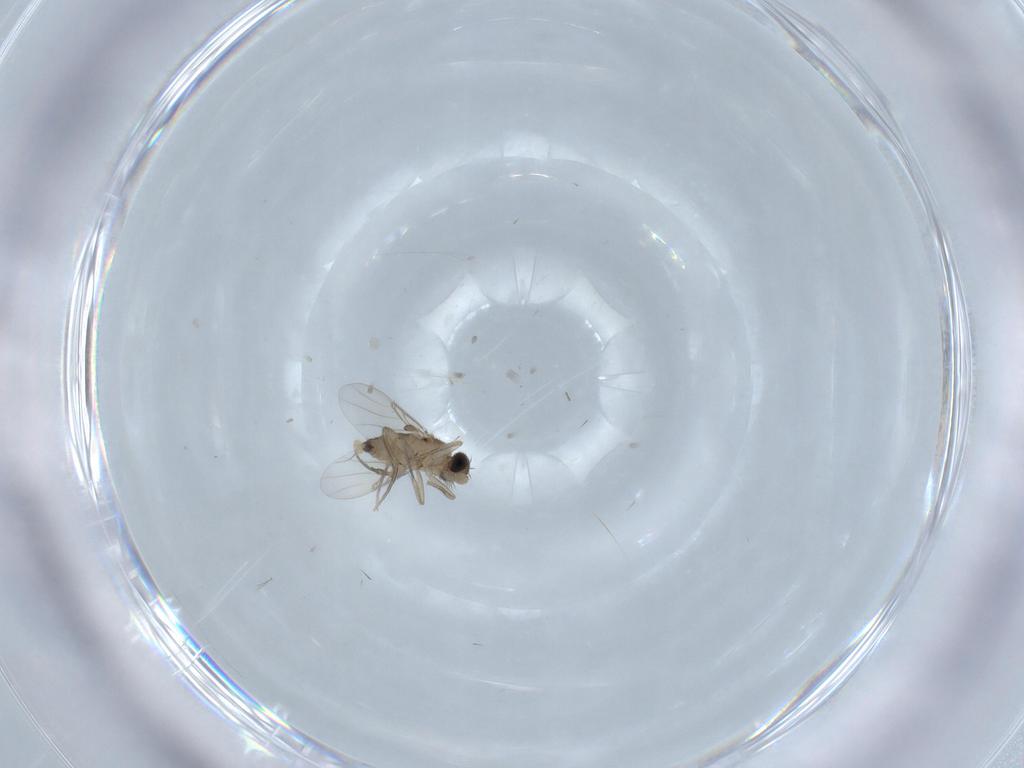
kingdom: Animalia
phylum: Arthropoda
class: Insecta
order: Diptera
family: Phoridae
